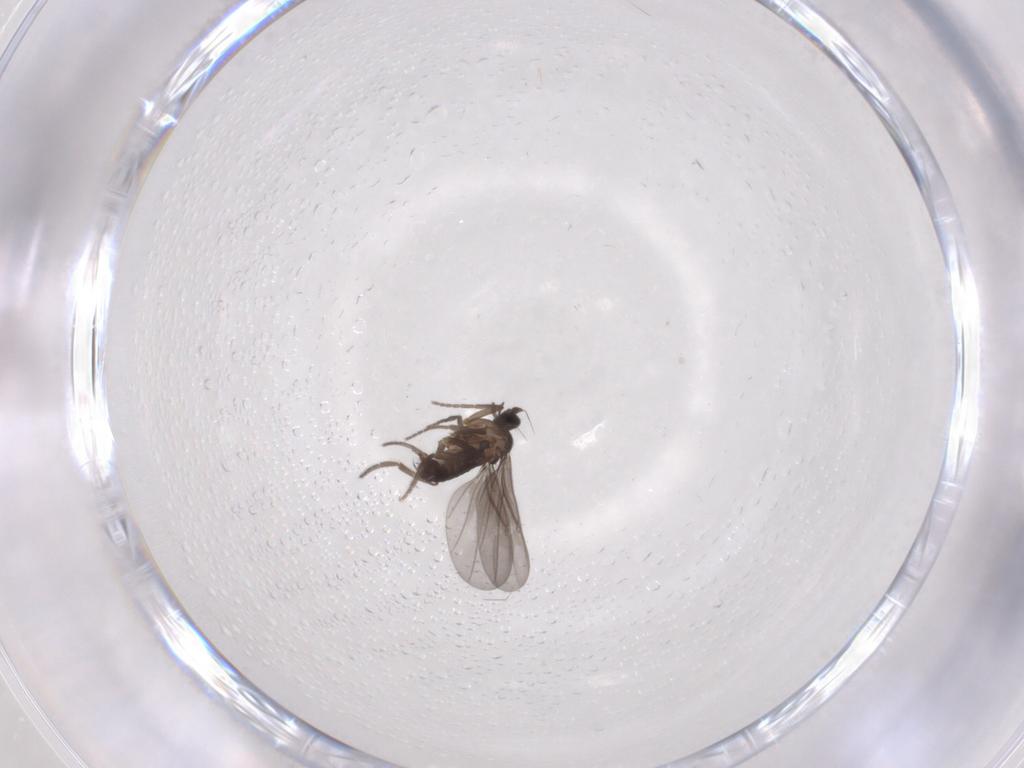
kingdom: Animalia
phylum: Arthropoda
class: Insecta
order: Diptera
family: Phoridae
